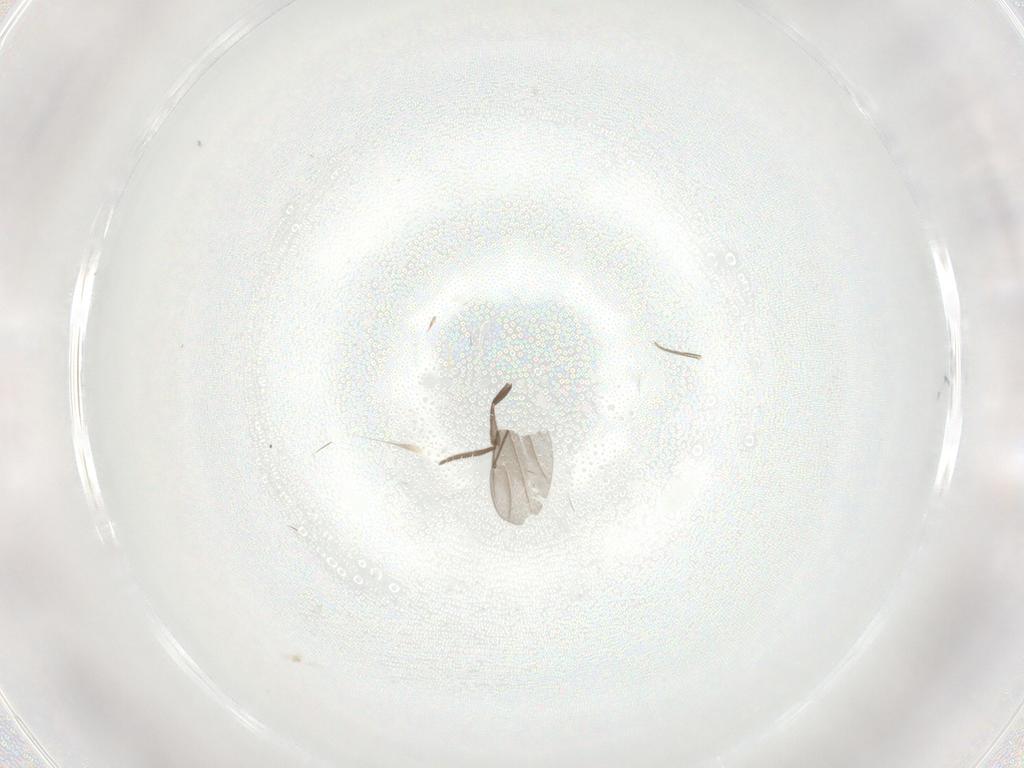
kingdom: Animalia
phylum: Arthropoda
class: Insecta
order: Diptera
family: Phoridae
